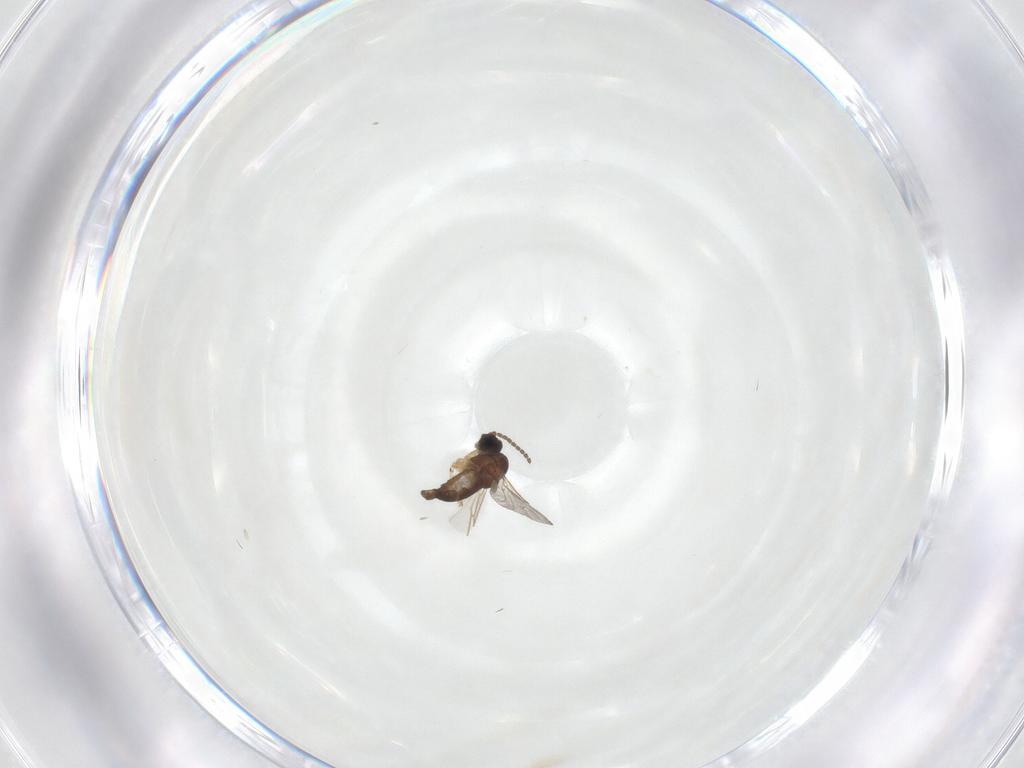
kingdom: Animalia
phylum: Arthropoda
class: Insecta
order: Diptera
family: Sciaridae
